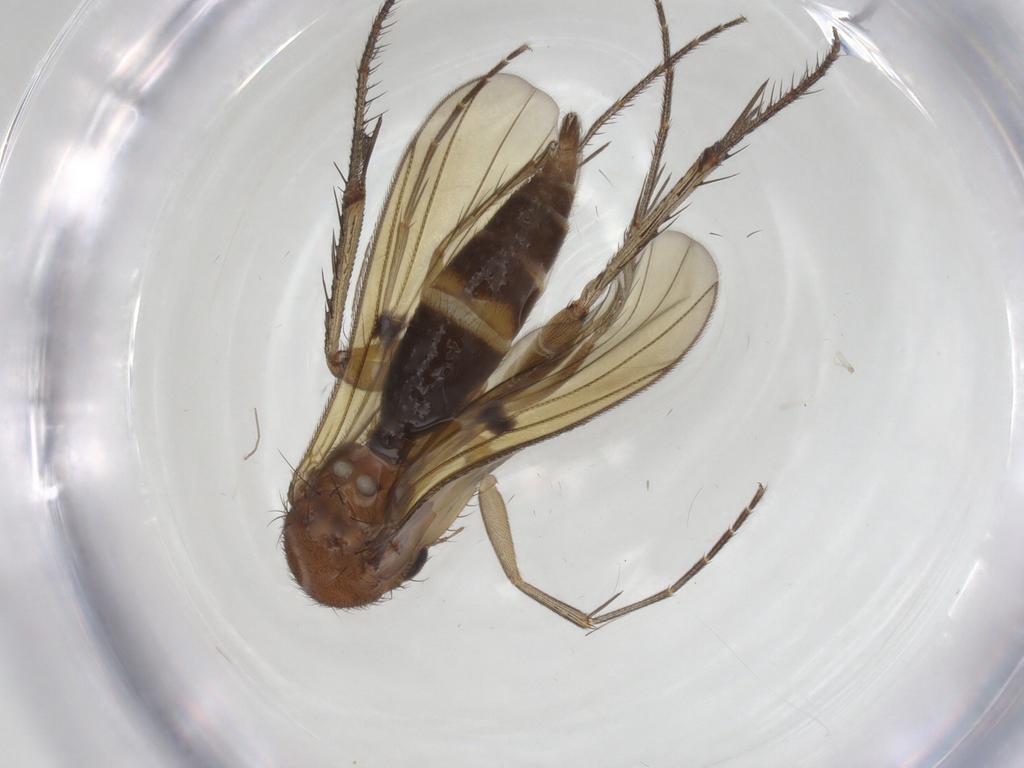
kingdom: Animalia
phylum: Arthropoda
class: Insecta
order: Diptera
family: Mycetophilidae
